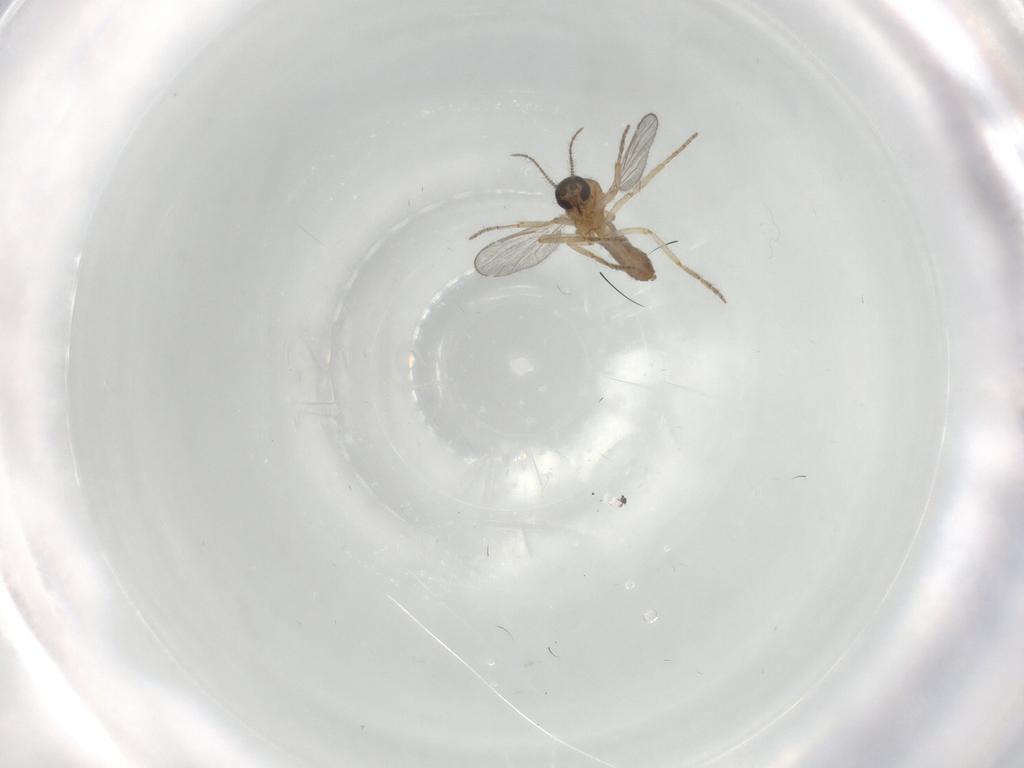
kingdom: Animalia
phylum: Arthropoda
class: Insecta
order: Diptera
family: Ceratopogonidae
